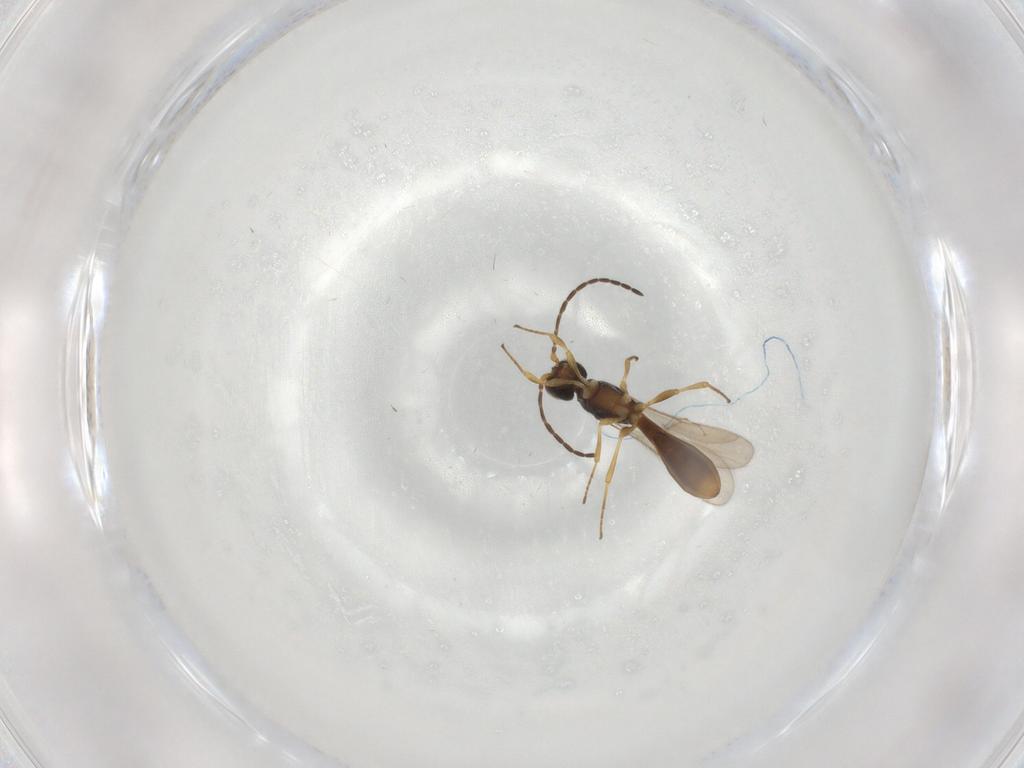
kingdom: Animalia
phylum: Arthropoda
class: Insecta
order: Hymenoptera
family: Scelionidae
